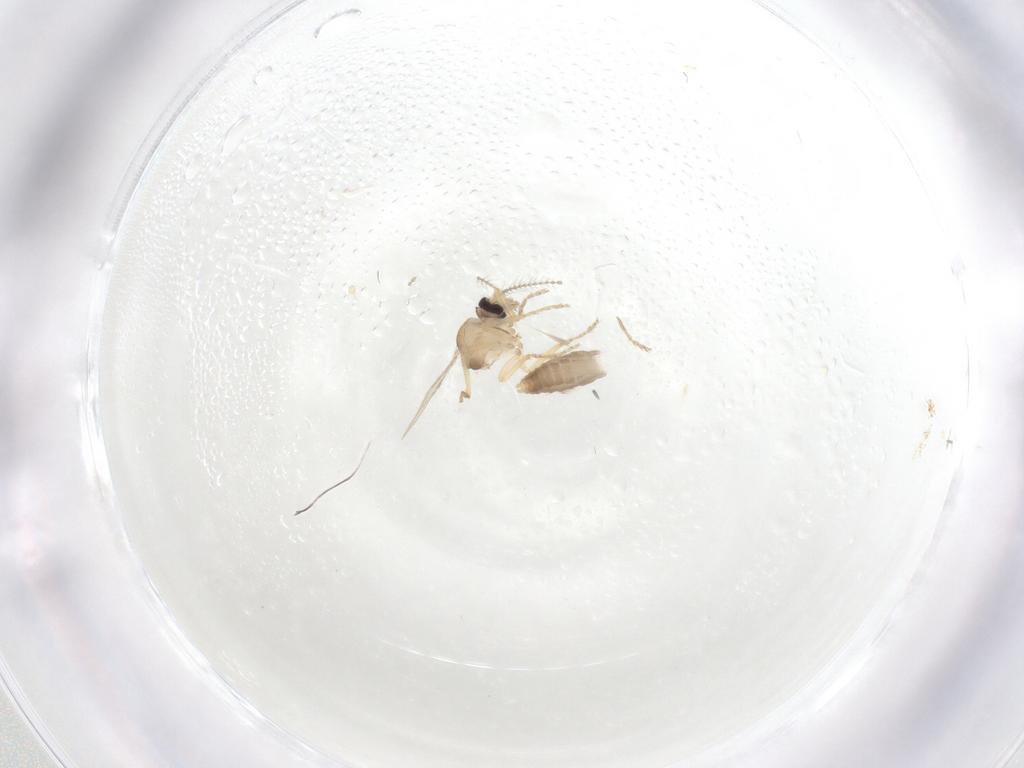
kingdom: Animalia
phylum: Arthropoda
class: Insecta
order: Diptera
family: Ceratopogonidae
